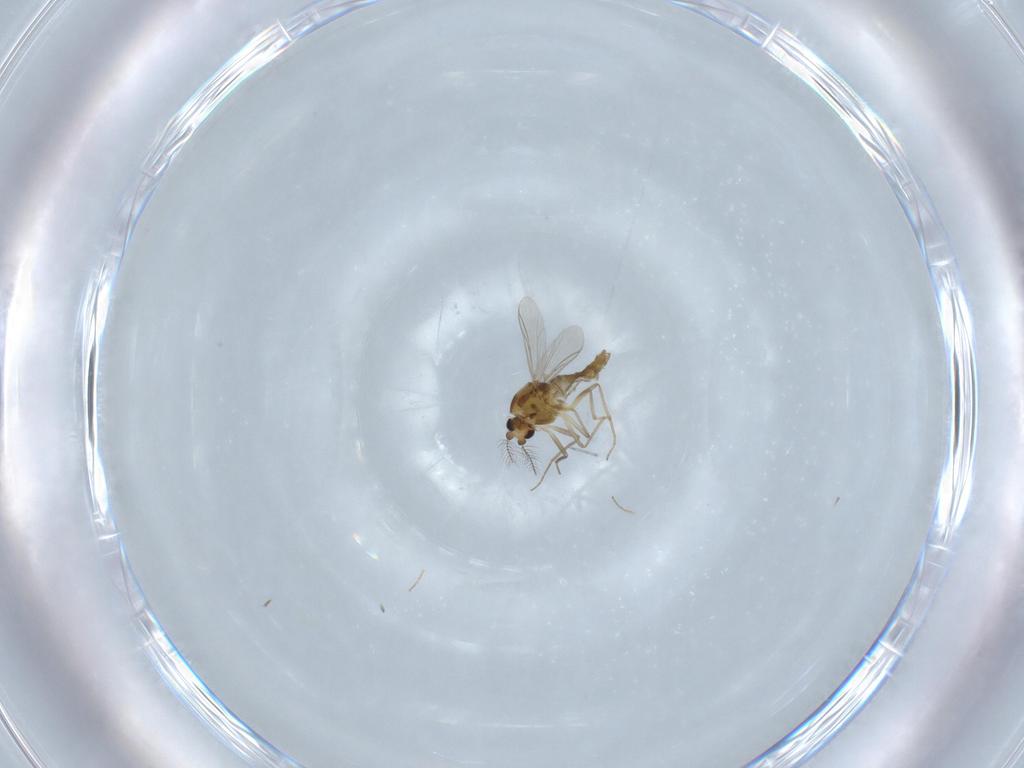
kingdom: Animalia
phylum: Arthropoda
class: Insecta
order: Diptera
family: Chironomidae
